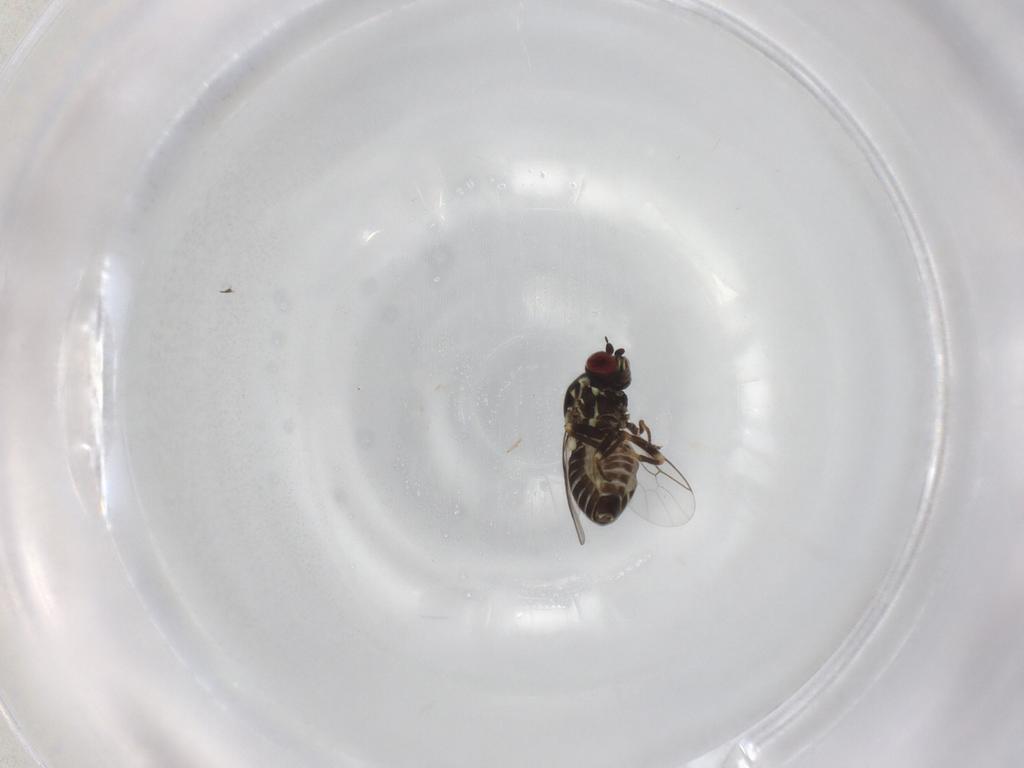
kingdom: Animalia
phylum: Arthropoda
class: Insecta
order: Diptera
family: Mythicomyiidae
